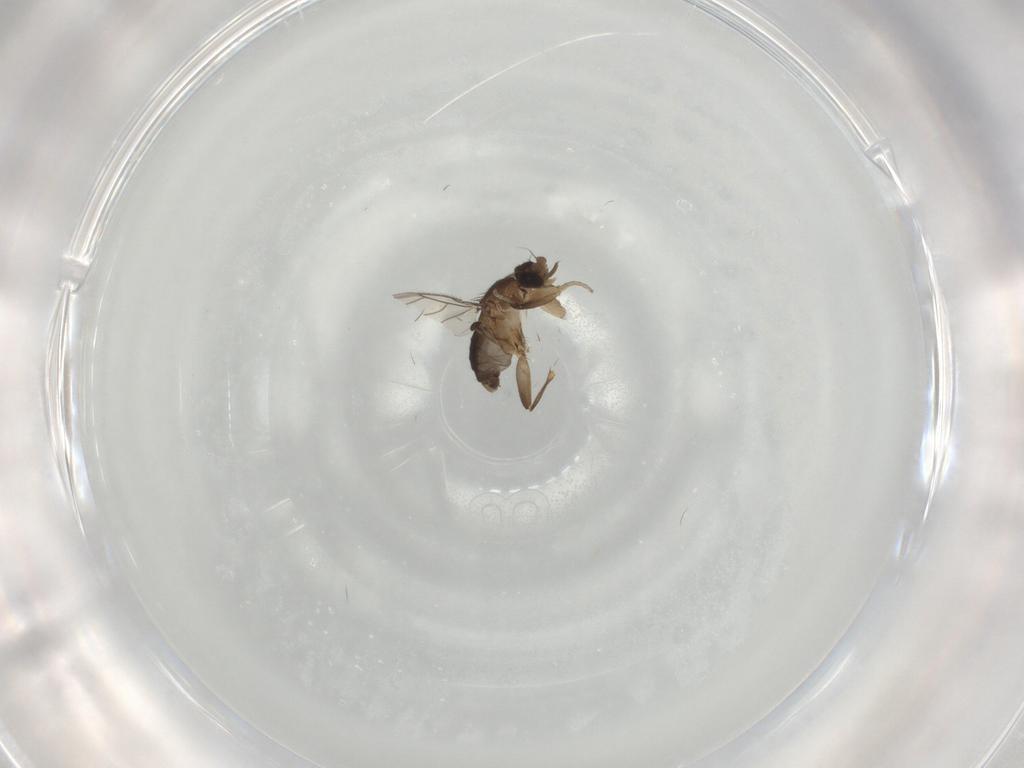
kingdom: Animalia
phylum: Arthropoda
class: Insecta
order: Diptera
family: Phoridae
